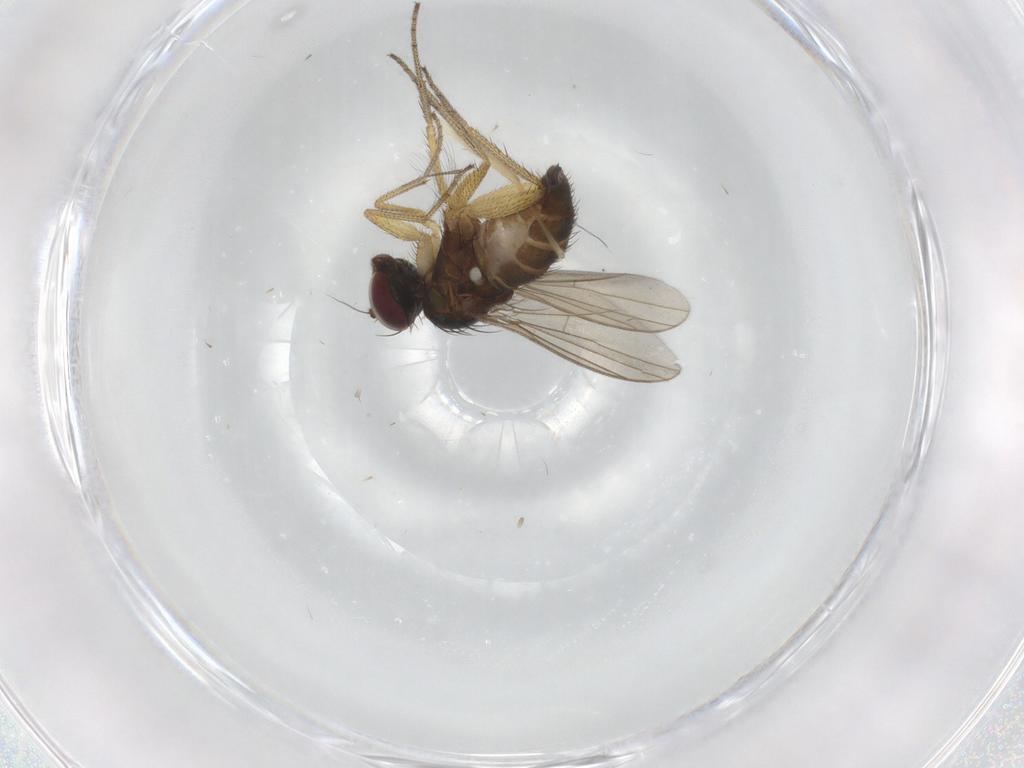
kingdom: Animalia
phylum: Arthropoda
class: Insecta
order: Diptera
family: Dolichopodidae
